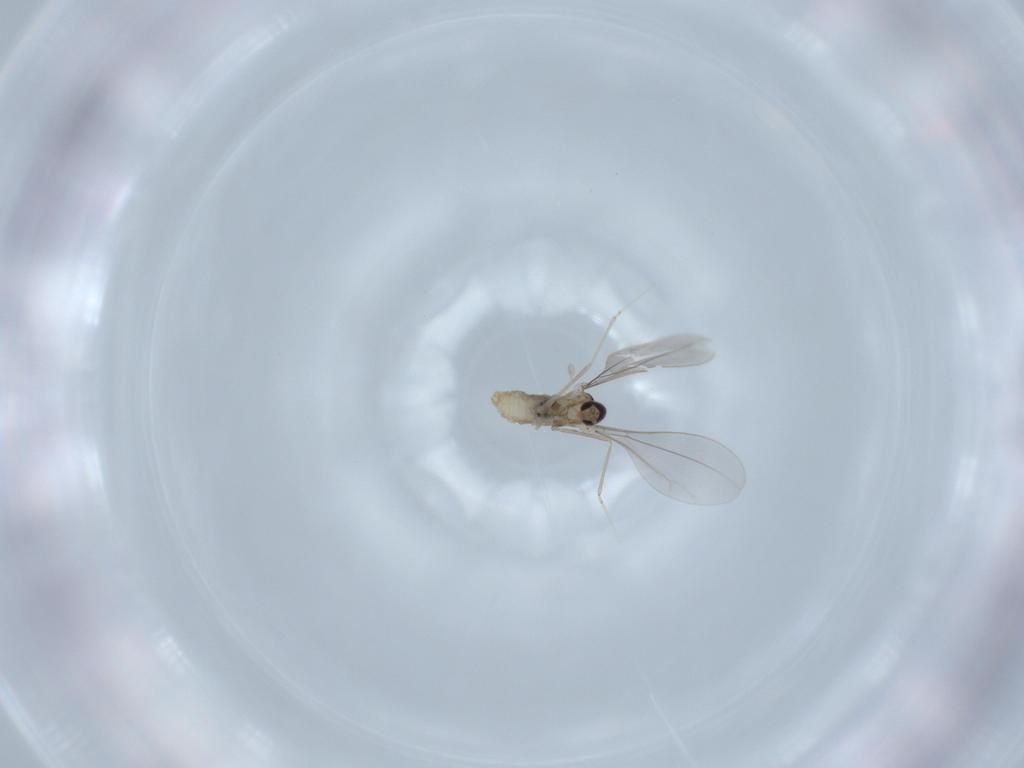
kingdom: Animalia
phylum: Arthropoda
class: Insecta
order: Diptera
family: Cecidomyiidae
